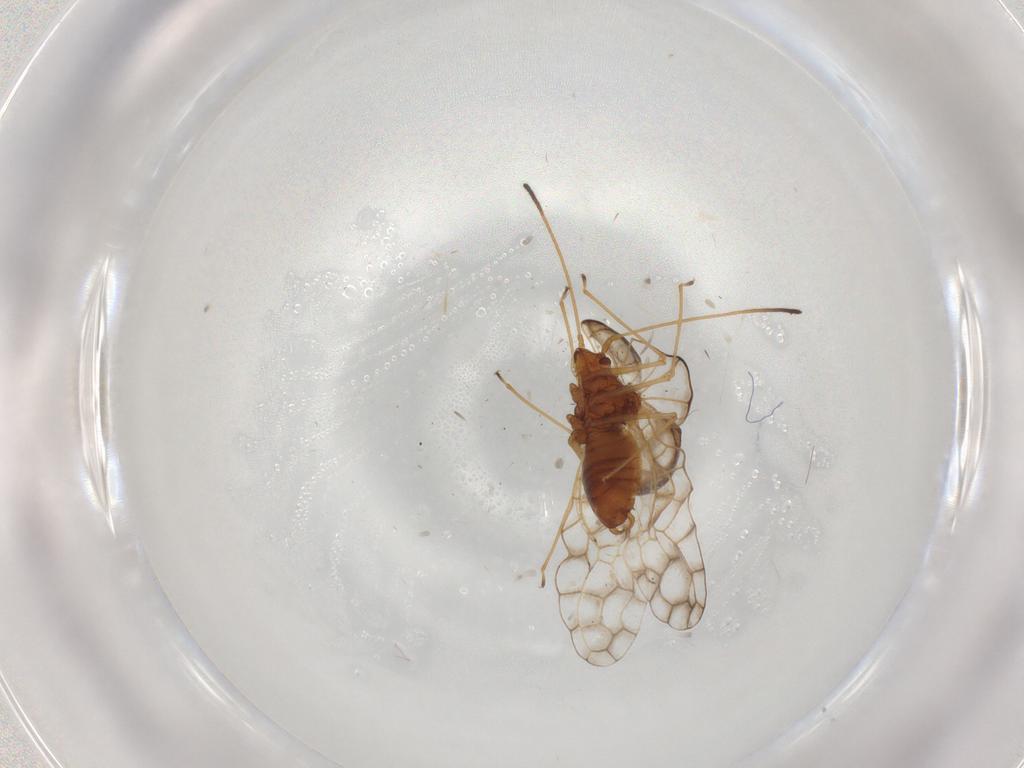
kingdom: Animalia
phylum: Arthropoda
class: Insecta
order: Hemiptera
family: Tingidae
